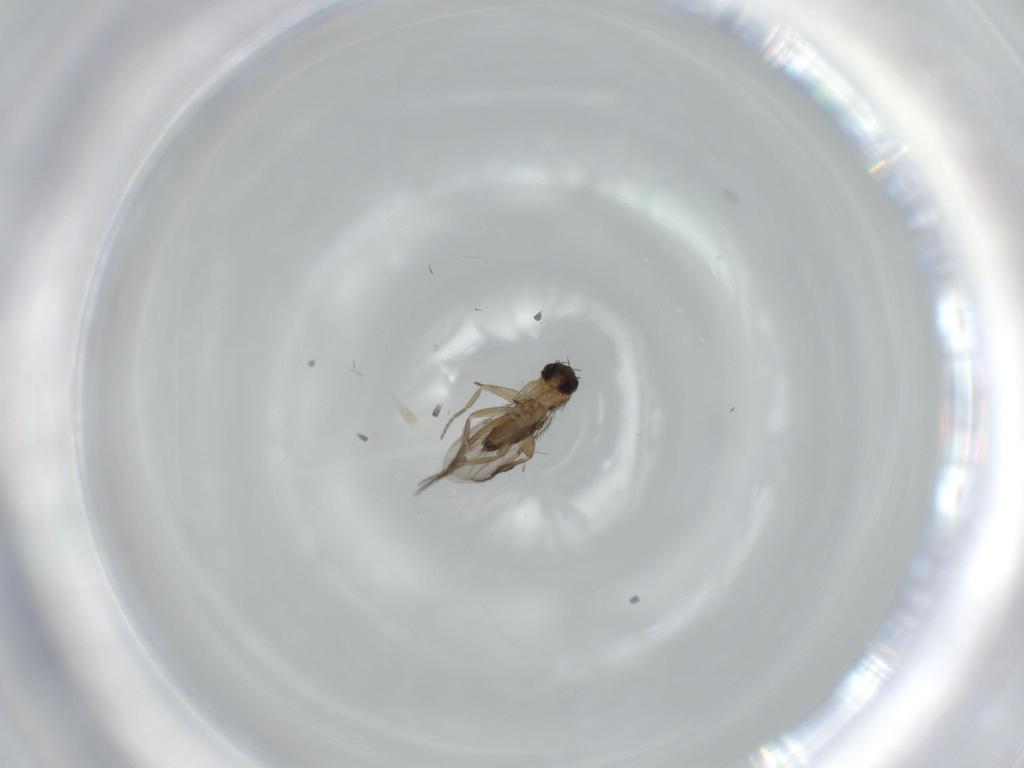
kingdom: Animalia
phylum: Arthropoda
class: Insecta
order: Diptera
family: Phoridae
